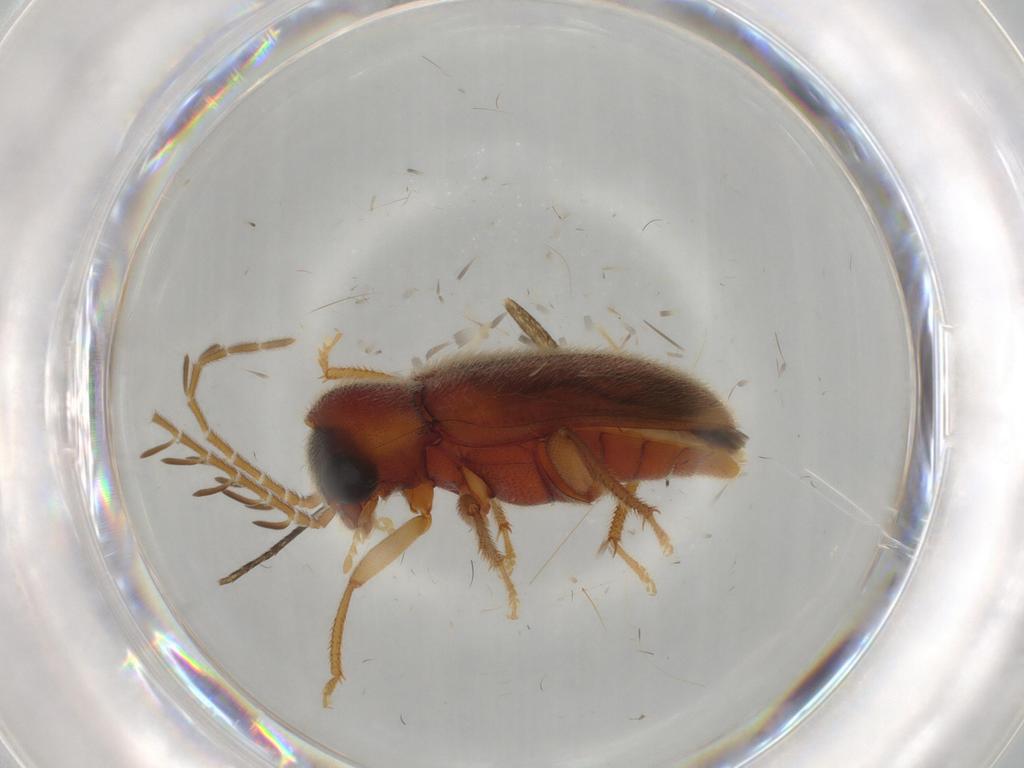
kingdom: Animalia
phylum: Arthropoda
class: Insecta
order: Coleoptera
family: Ptilodactylidae
